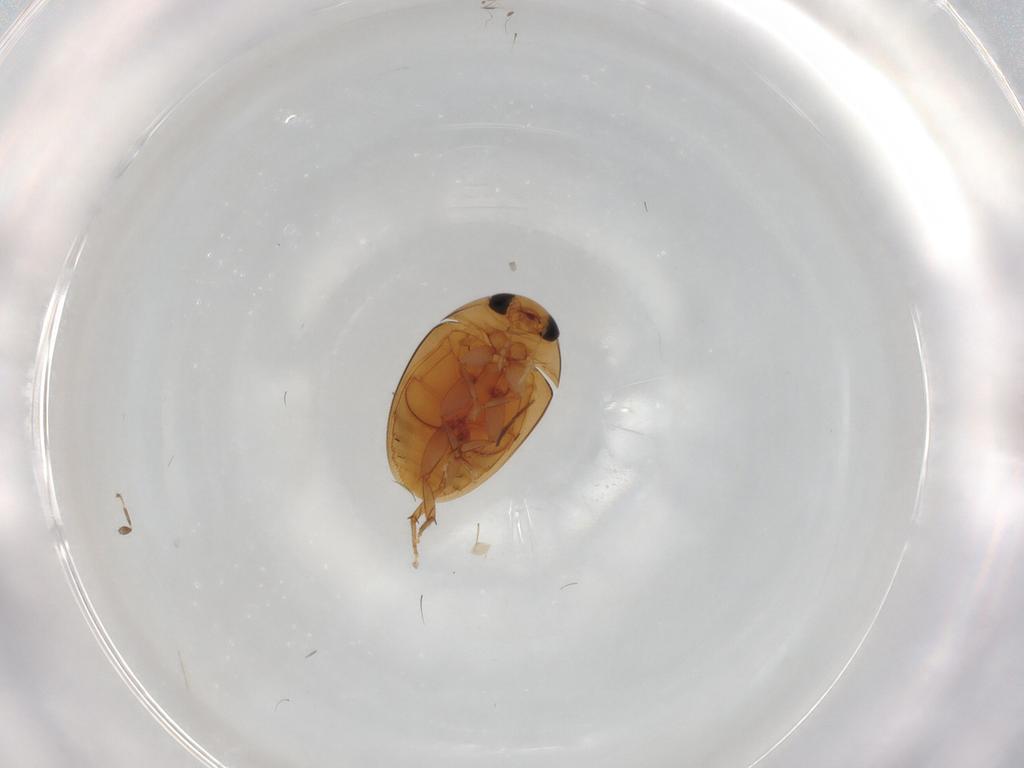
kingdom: Animalia
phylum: Arthropoda
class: Insecta
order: Coleoptera
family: Phalacridae
